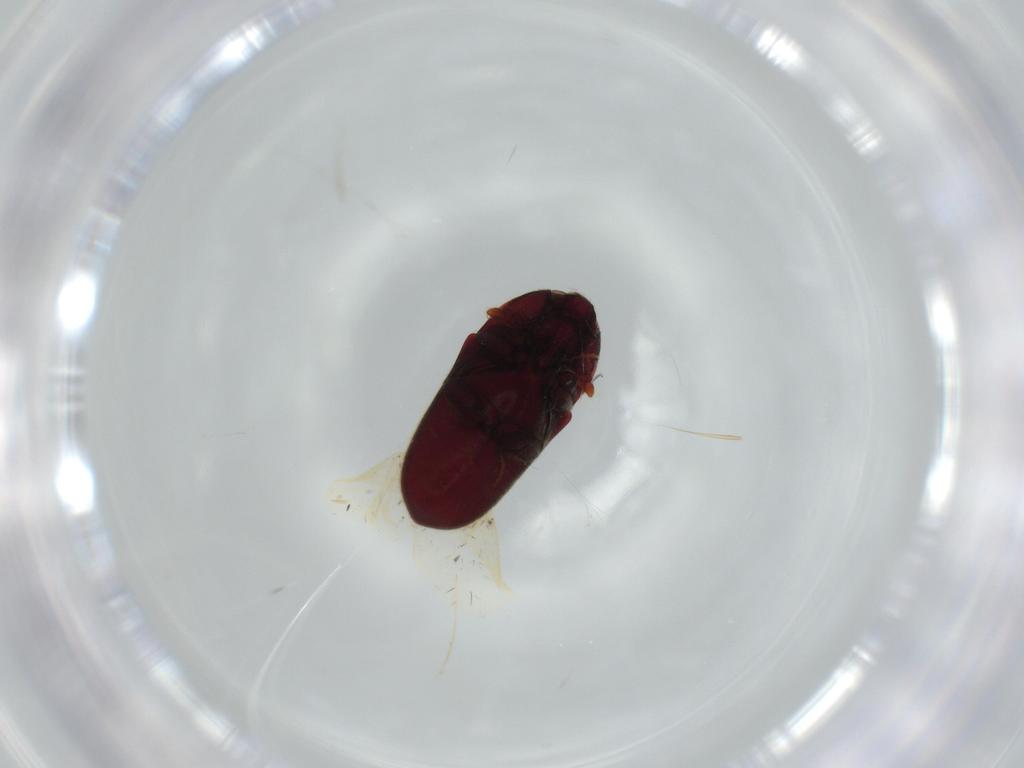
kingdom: Animalia
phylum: Arthropoda
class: Insecta
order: Coleoptera
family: Throscidae
